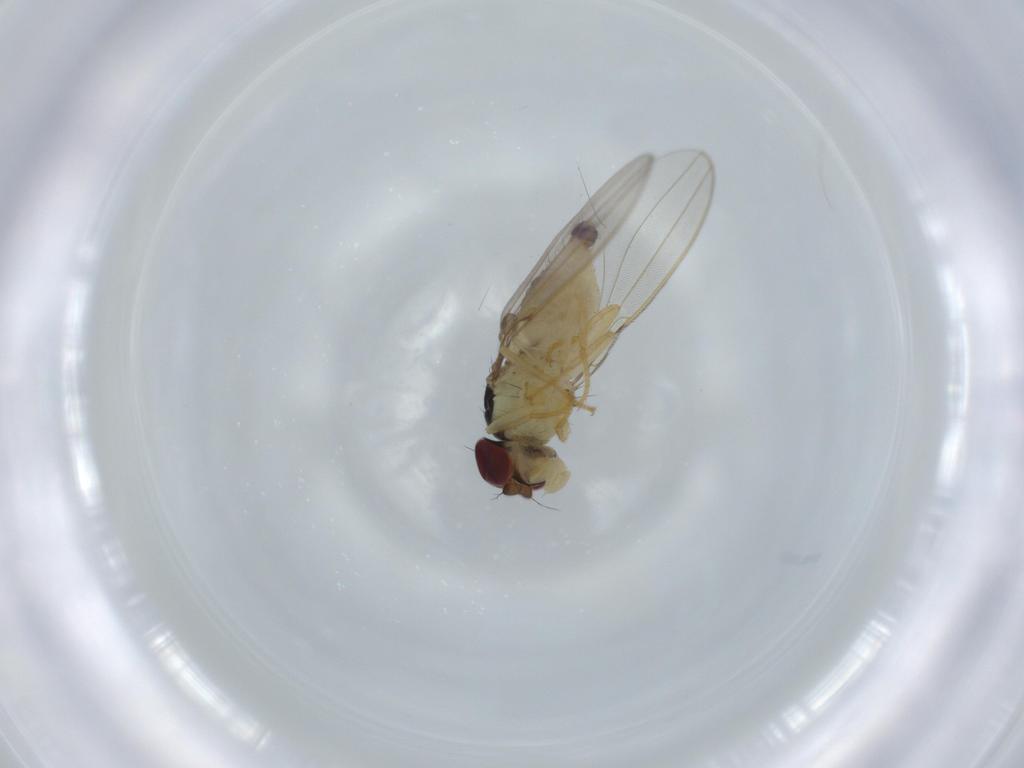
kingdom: Animalia
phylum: Arthropoda
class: Insecta
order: Diptera
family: Asteiidae
